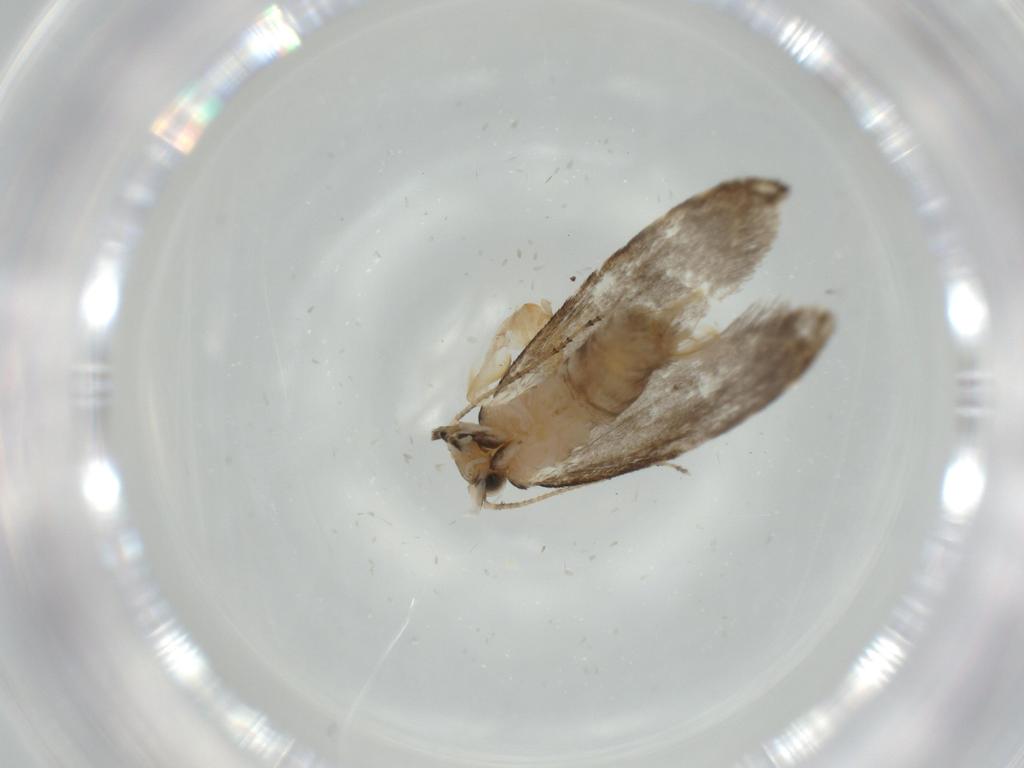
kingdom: Animalia
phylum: Arthropoda
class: Insecta
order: Lepidoptera
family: Tineidae
